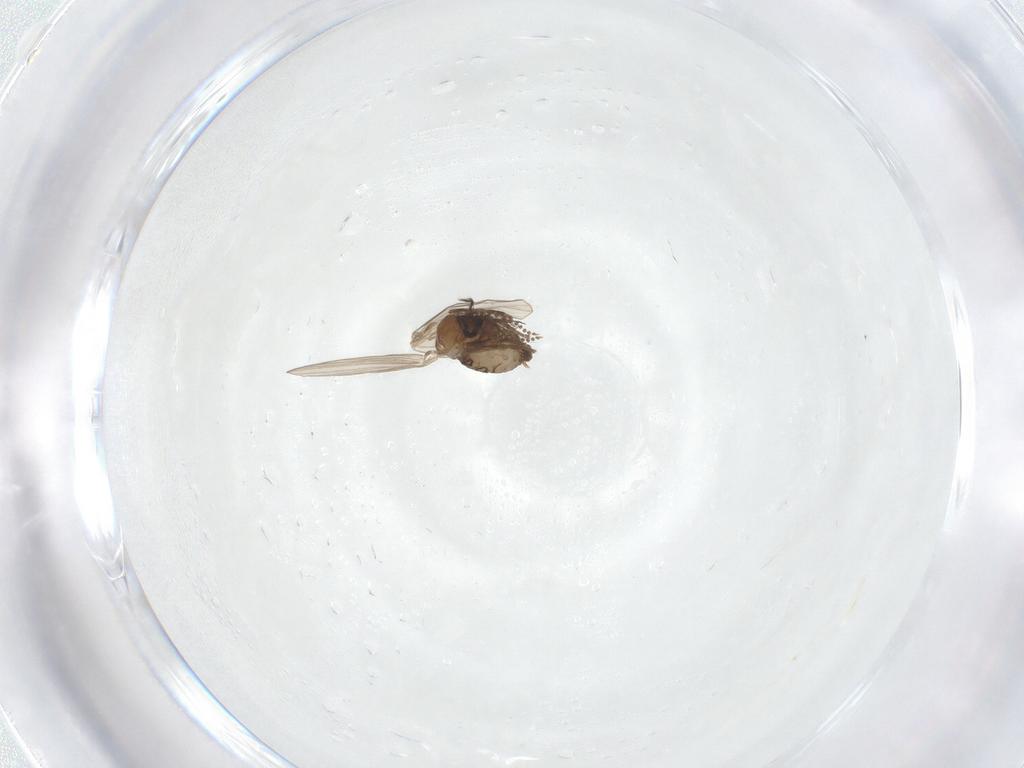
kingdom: Animalia
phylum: Arthropoda
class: Insecta
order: Diptera
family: Psychodidae
